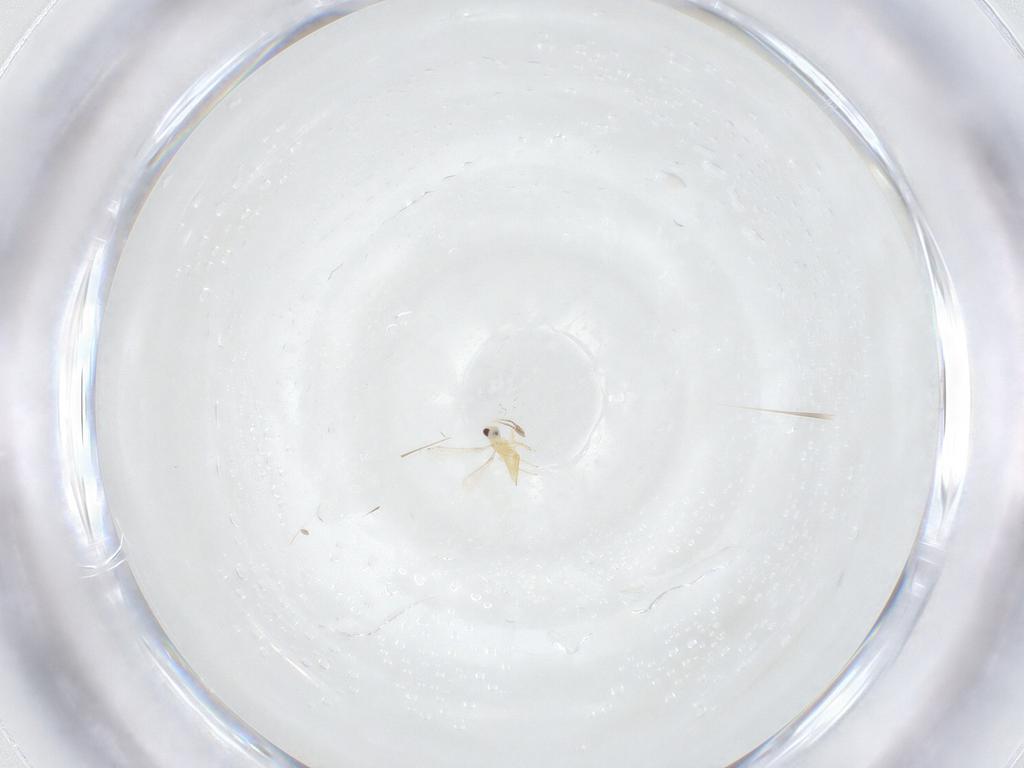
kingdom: Animalia
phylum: Arthropoda
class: Insecta
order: Hymenoptera
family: Mymaridae
